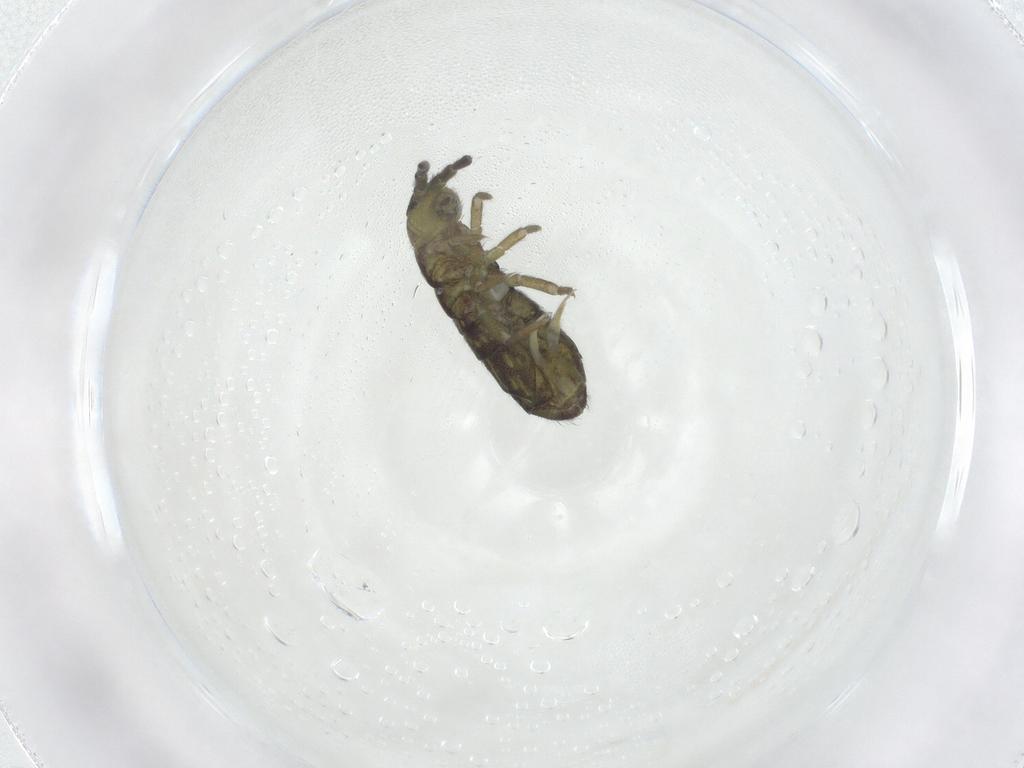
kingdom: Animalia
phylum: Arthropoda
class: Collembola
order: Entomobryomorpha
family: Isotomidae
